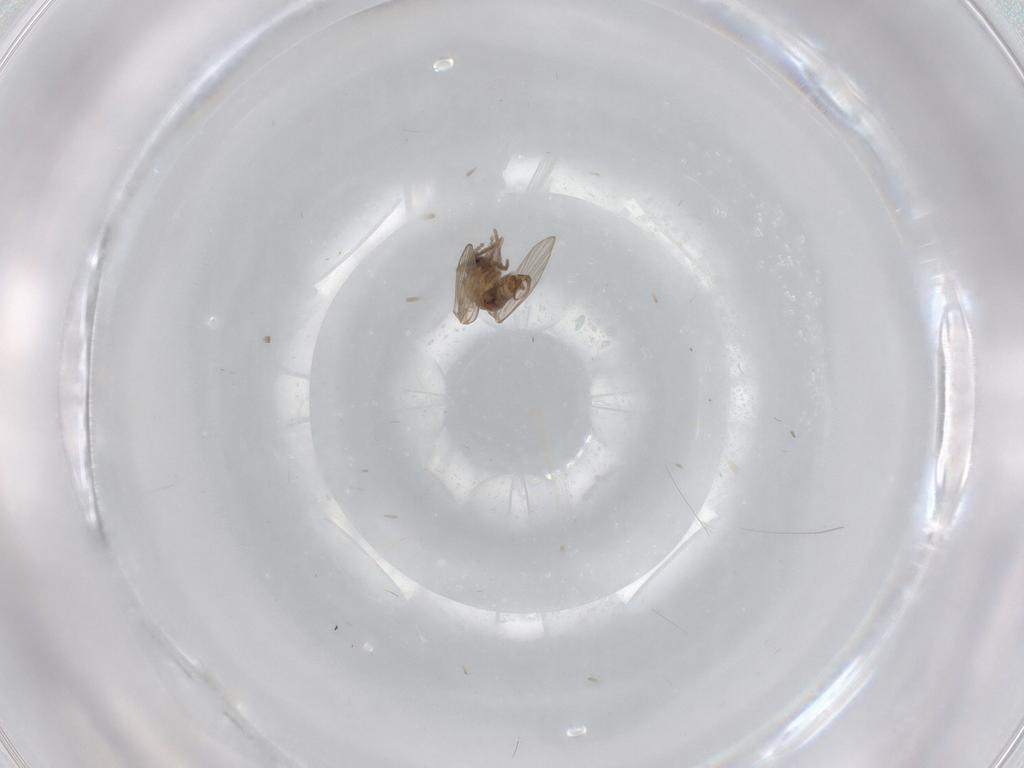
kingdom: Animalia
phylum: Arthropoda
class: Insecta
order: Diptera
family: Psychodidae
